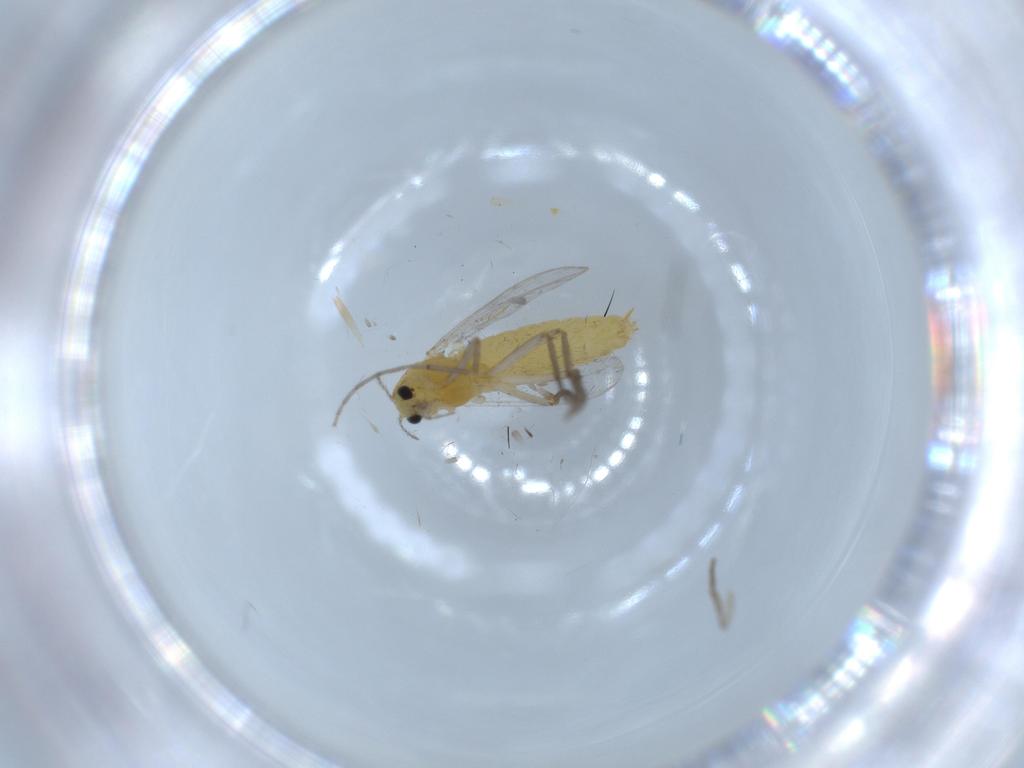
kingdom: Animalia
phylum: Arthropoda
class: Insecta
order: Diptera
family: Chironomidae
